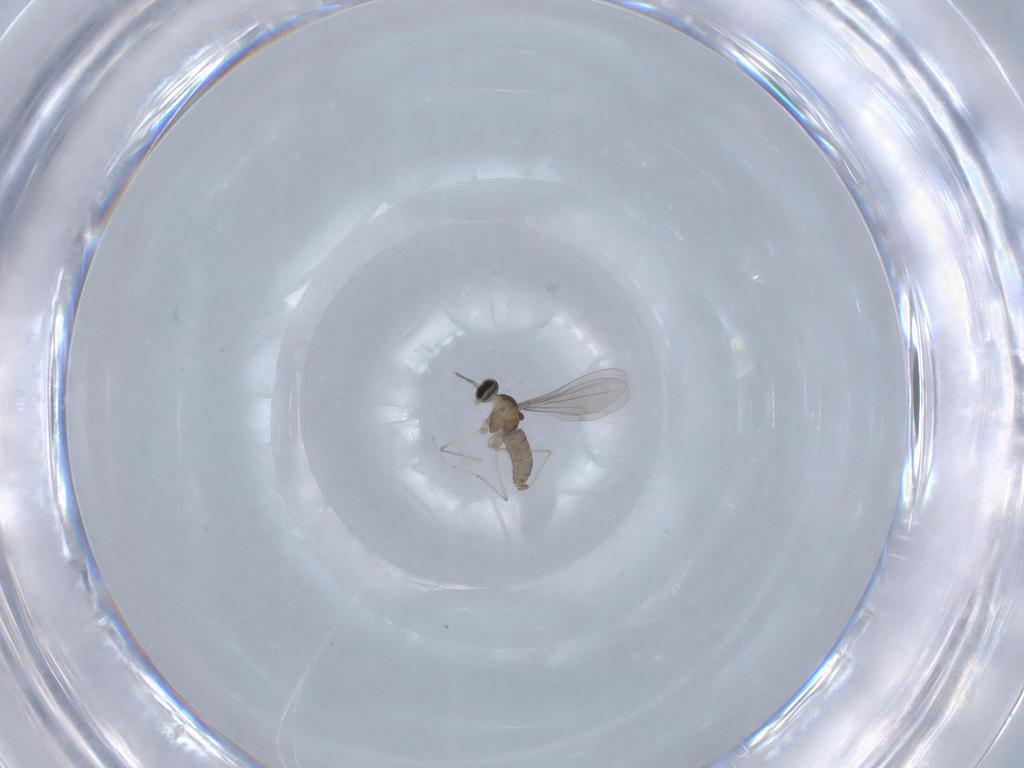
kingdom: Animalia
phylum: Arthropoda
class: Insecta
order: Diptera
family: Cecidomyiidae
